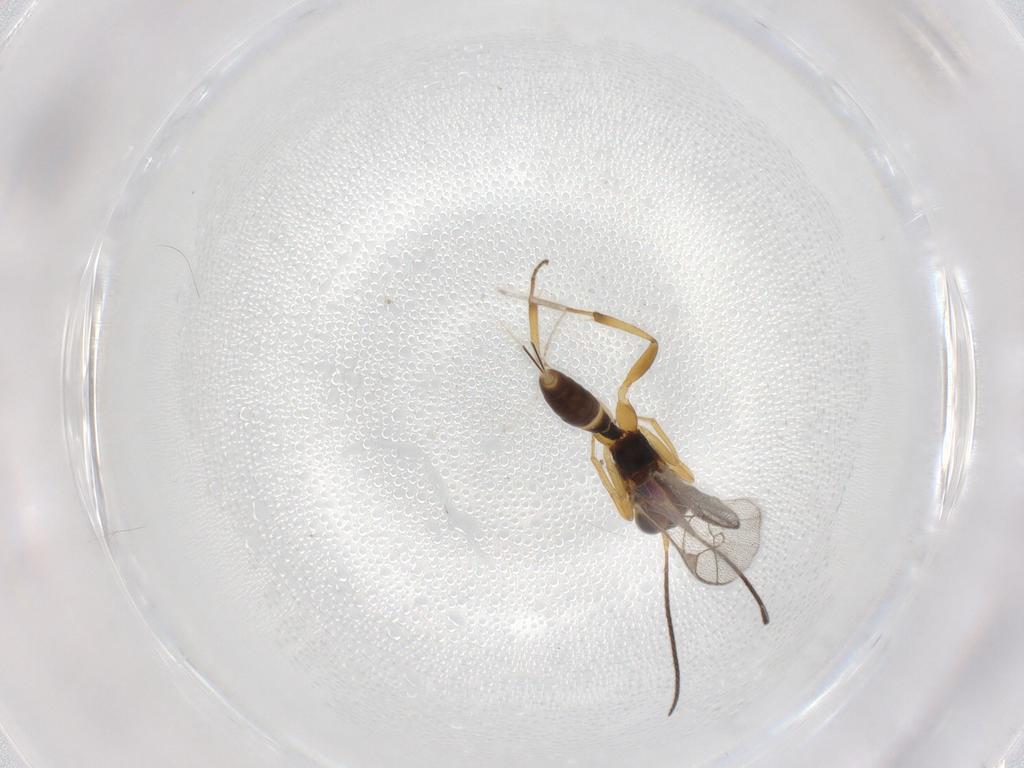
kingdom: Animalia
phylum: Arthropoda
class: Insecta
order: Hymenoptera
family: Ichneumonidae
